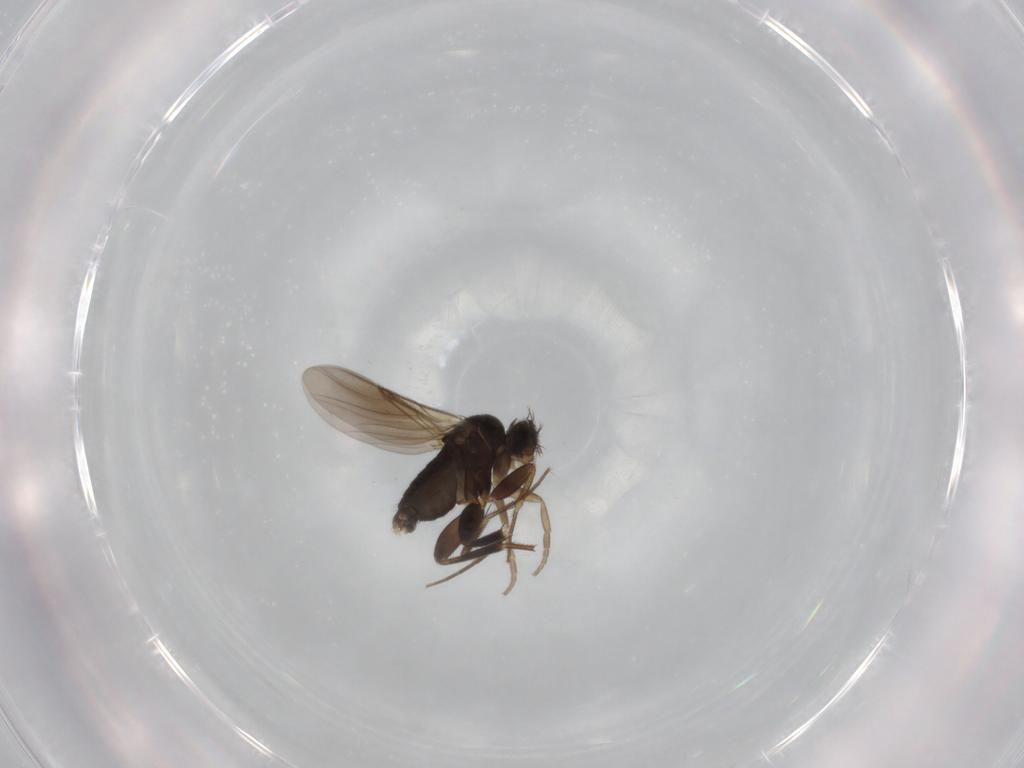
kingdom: Animalia
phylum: Arthropoda
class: Insecta
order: Diptera
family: Phoridae
